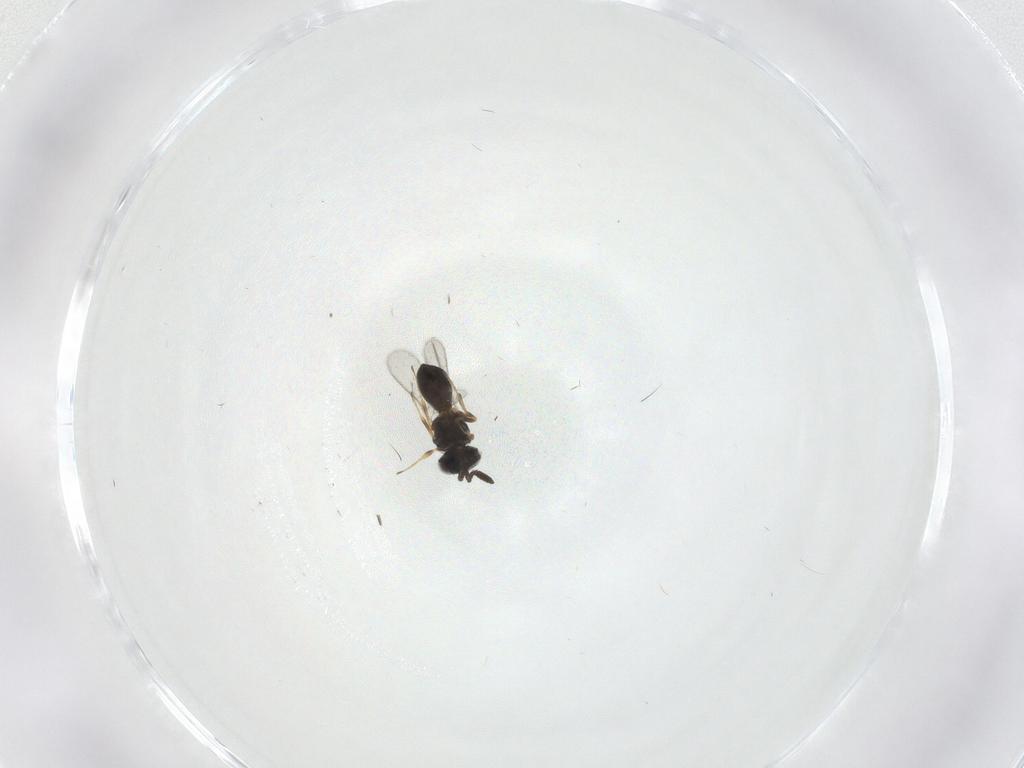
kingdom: Animalia
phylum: Arthropoda
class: Insecta
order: Hymenoptera
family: Scelionidae
